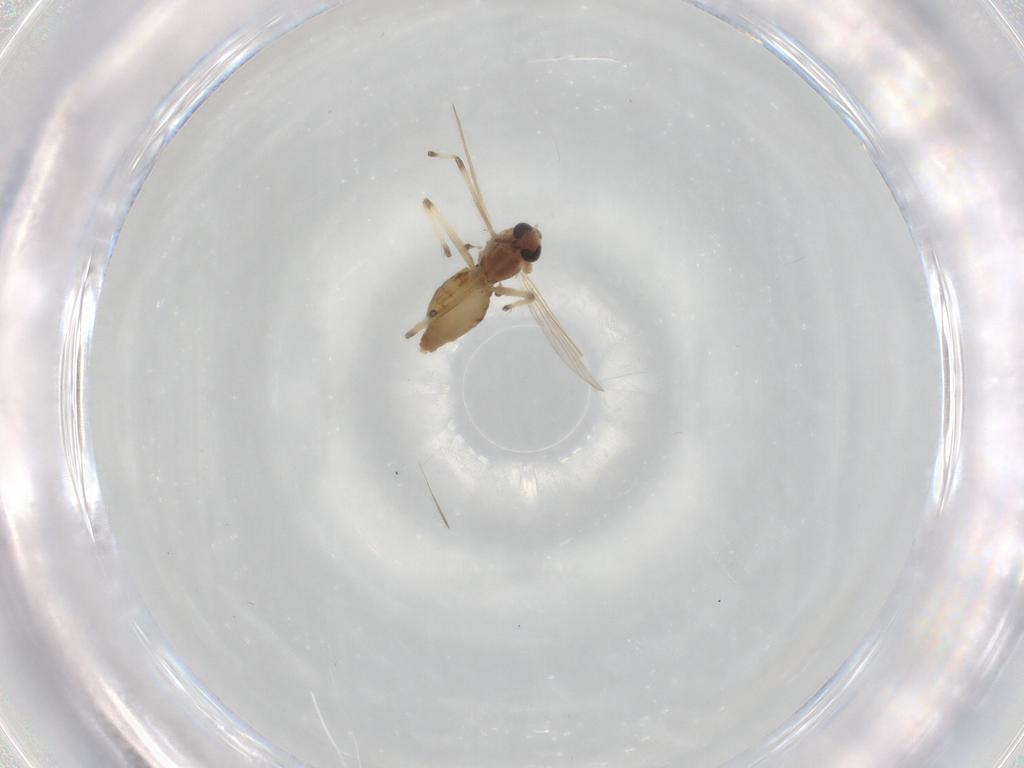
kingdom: Animalia
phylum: Arthropoda
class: Insecta
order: Diptera
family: Chironomidae
